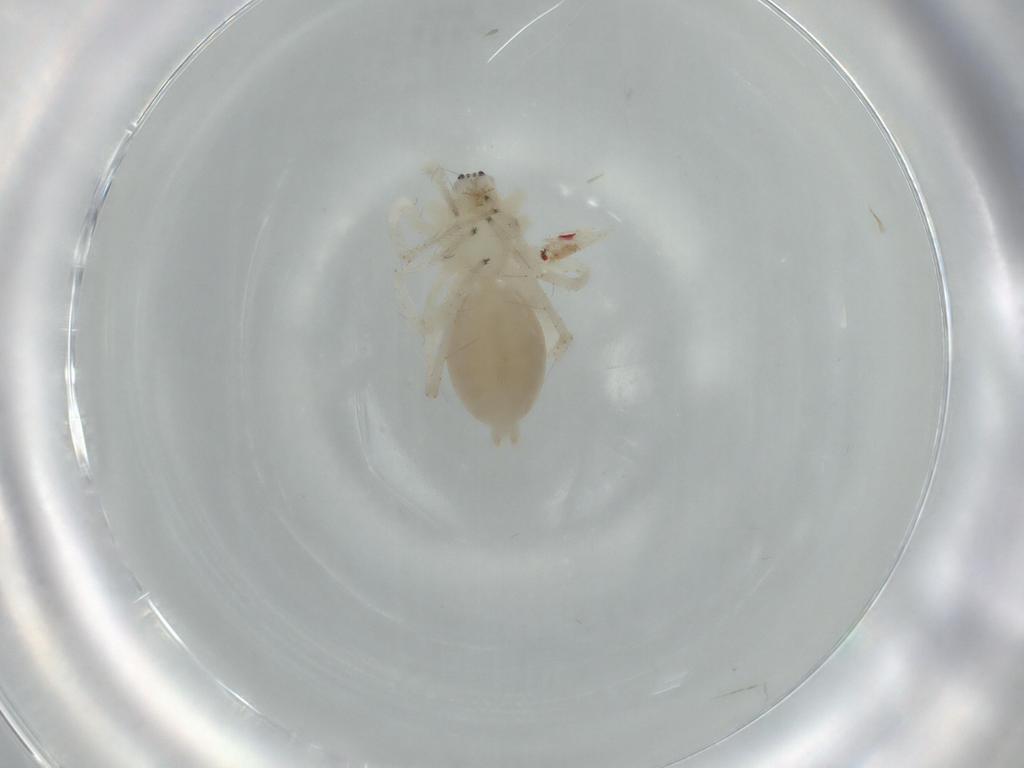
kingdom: Animalia
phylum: Arthropoda
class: Arachnida
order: Araneae
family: Anyphaenidae
